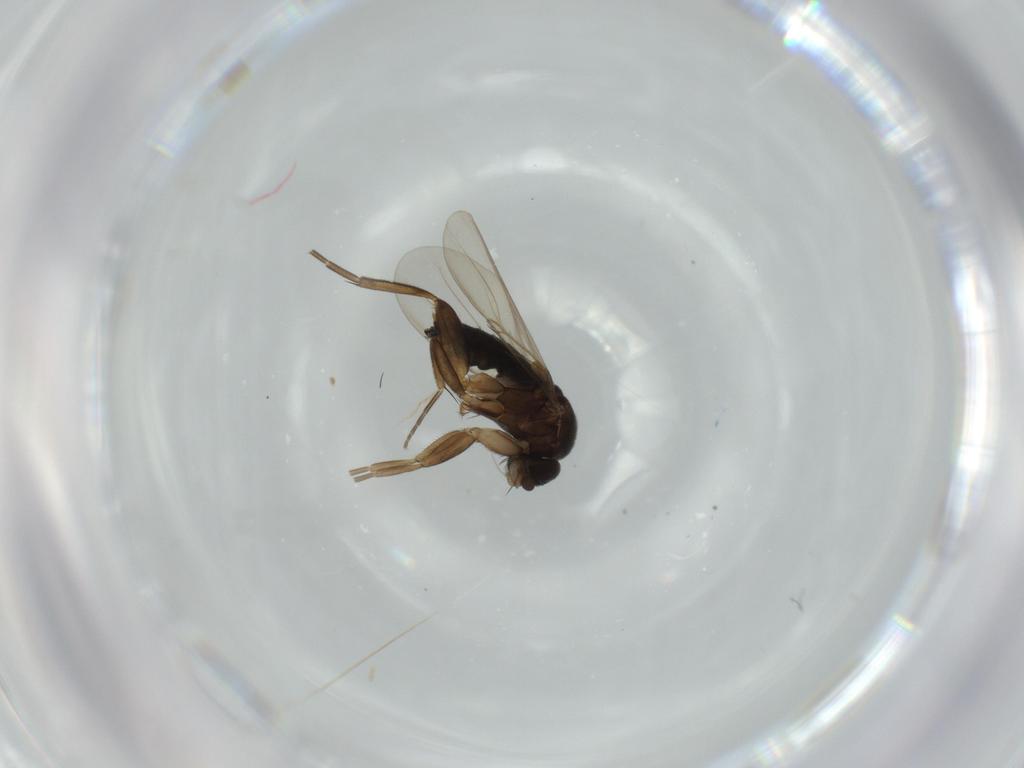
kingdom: Animalia
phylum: Arthropoda
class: Insecta
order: Diptera
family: Phoridae
